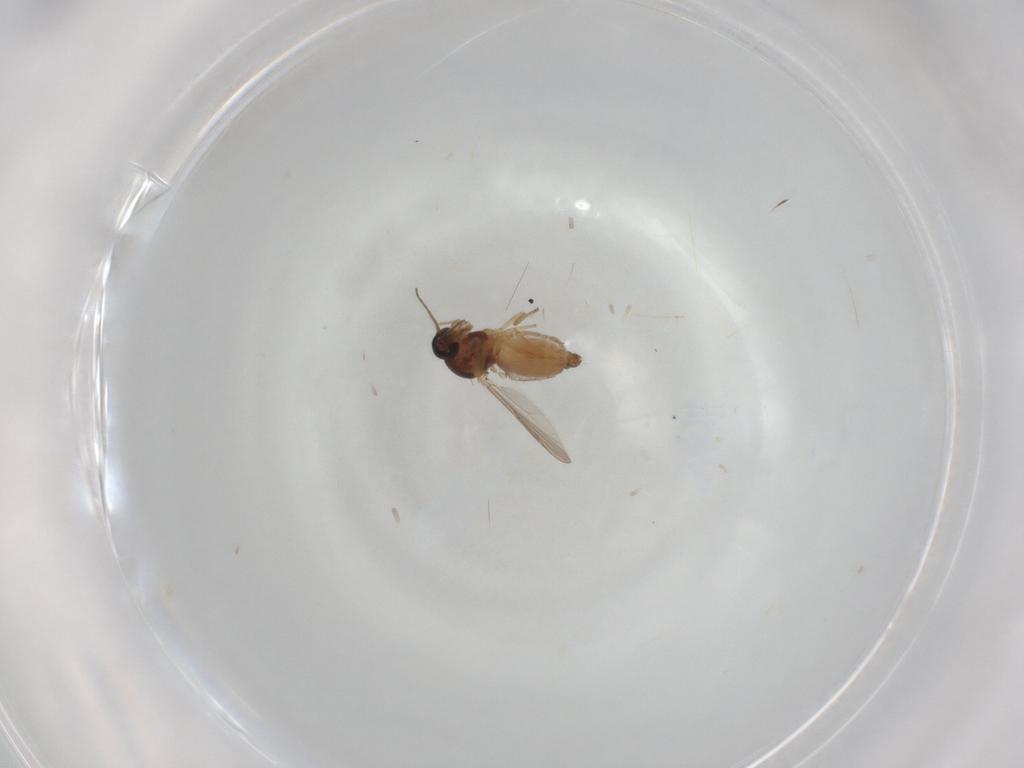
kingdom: Animalia
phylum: Arthropoda
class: Insecta
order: Diptera
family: Ceratopogonidae
